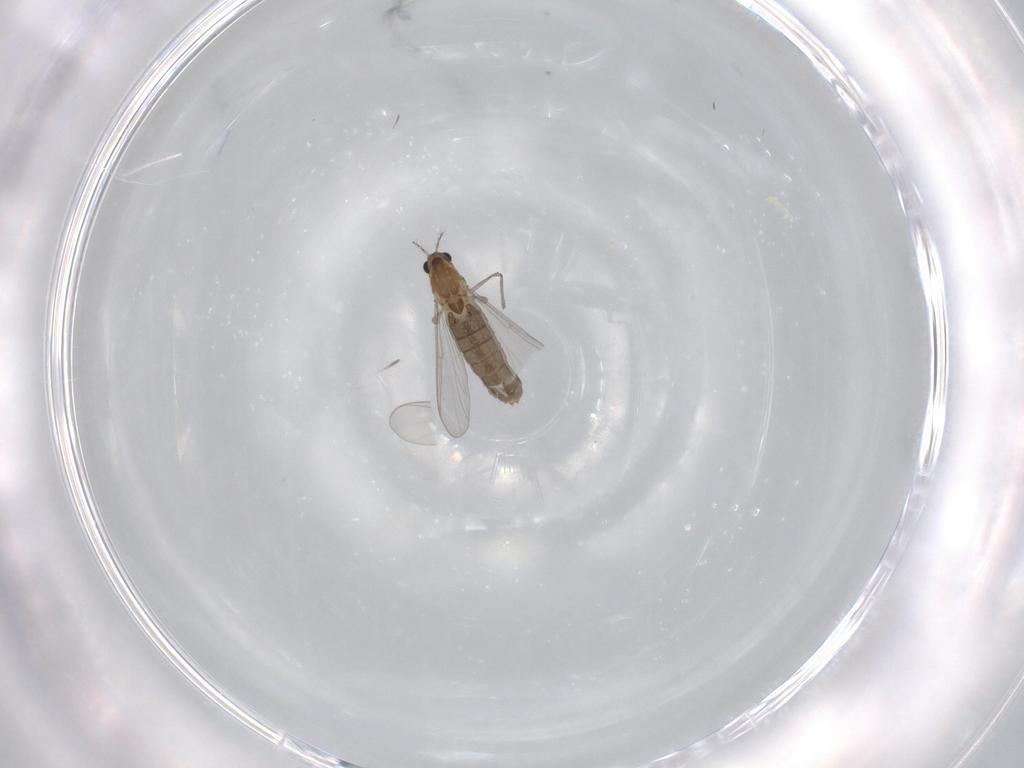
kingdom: Animalia
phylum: Arthropoda
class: Insecta
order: Diptera
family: Chironomidae
